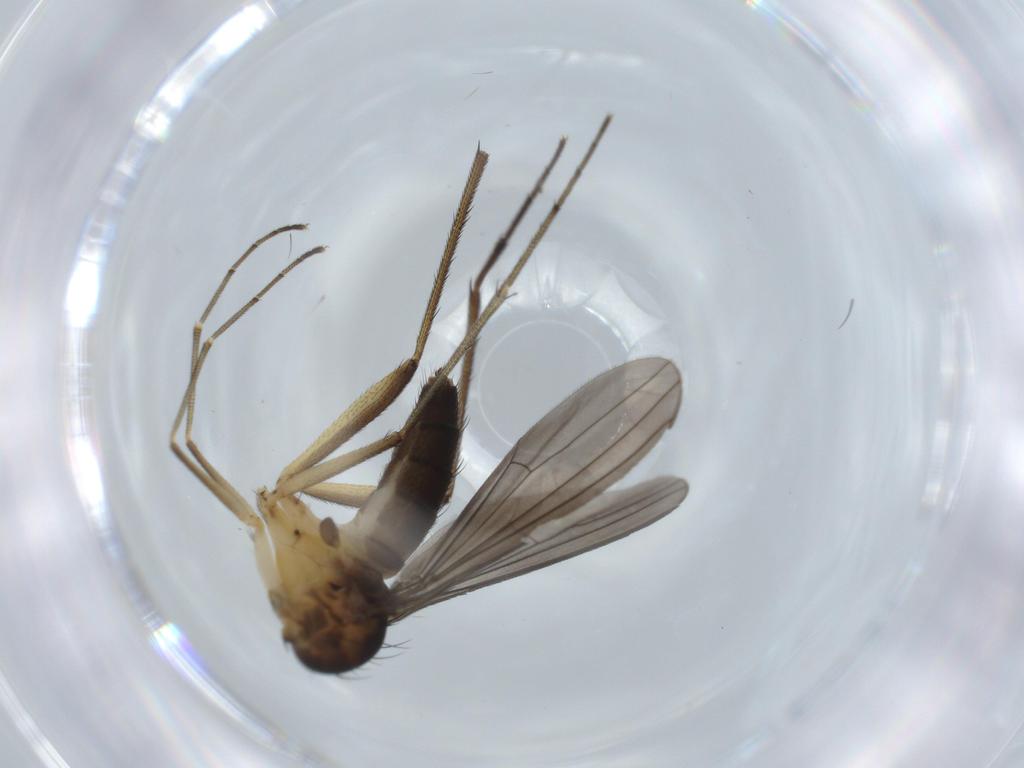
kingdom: Animalia
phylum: Arthropoda
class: Insecta
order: Diptera
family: Dolichopodidae
